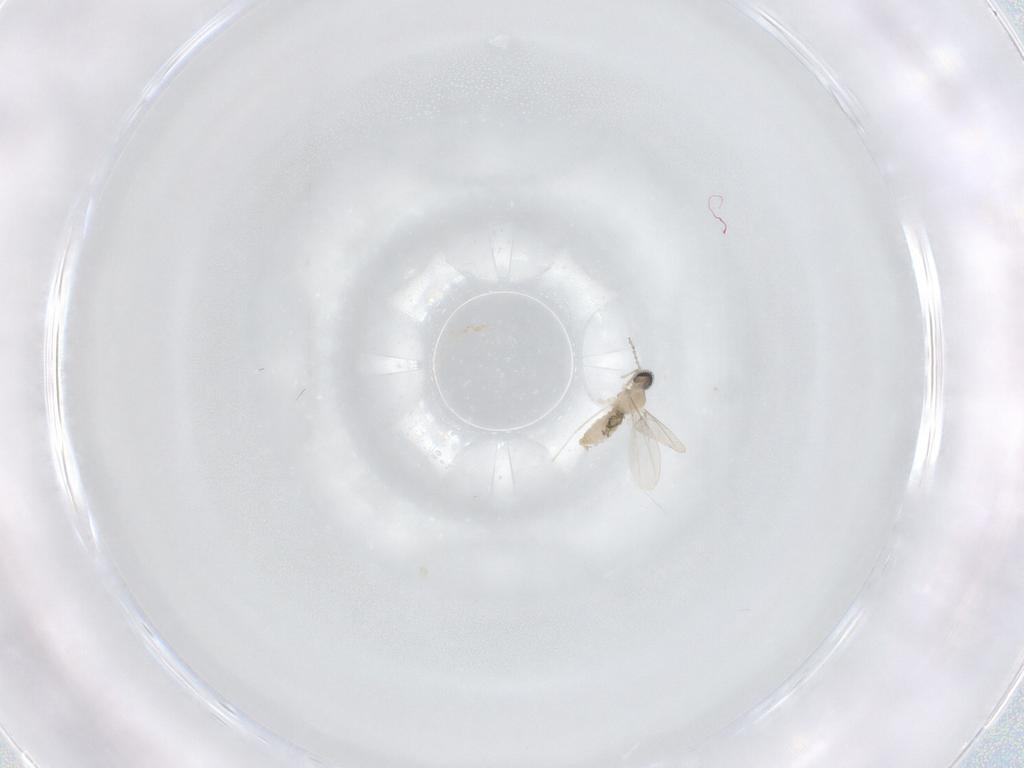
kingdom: Animalia
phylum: Arthropoda
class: Insecta
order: Diptera
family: Cecidomyiidae
